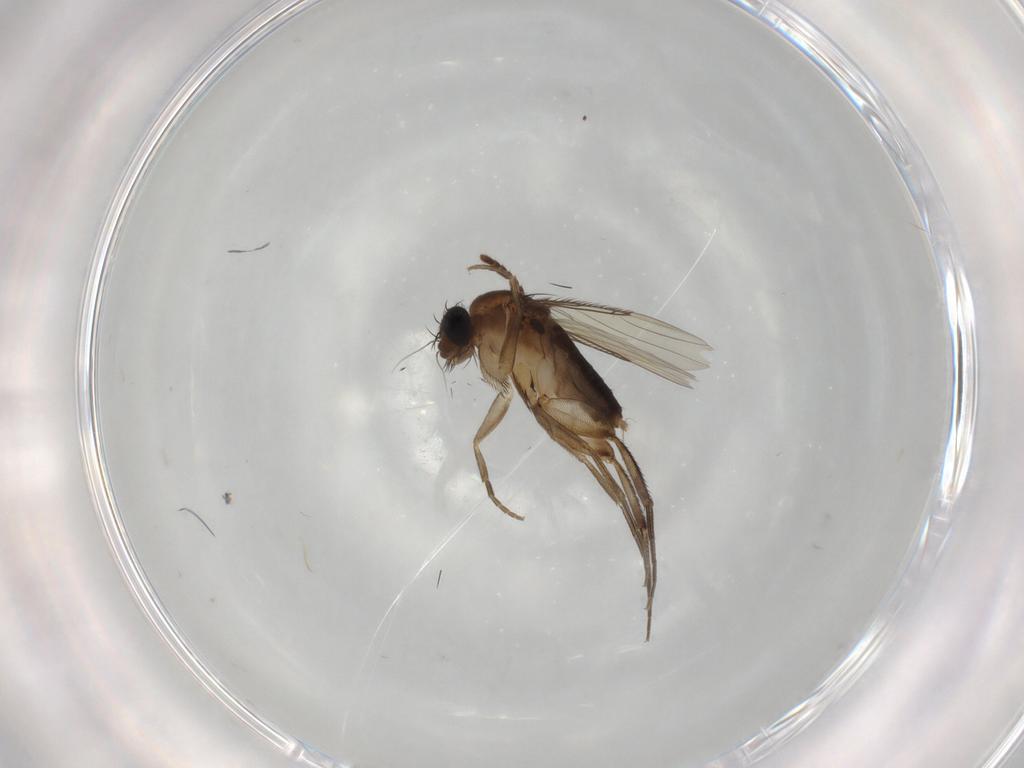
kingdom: Animalia
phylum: Arthropoda
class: Insecta
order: Diptera
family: Phoridae
